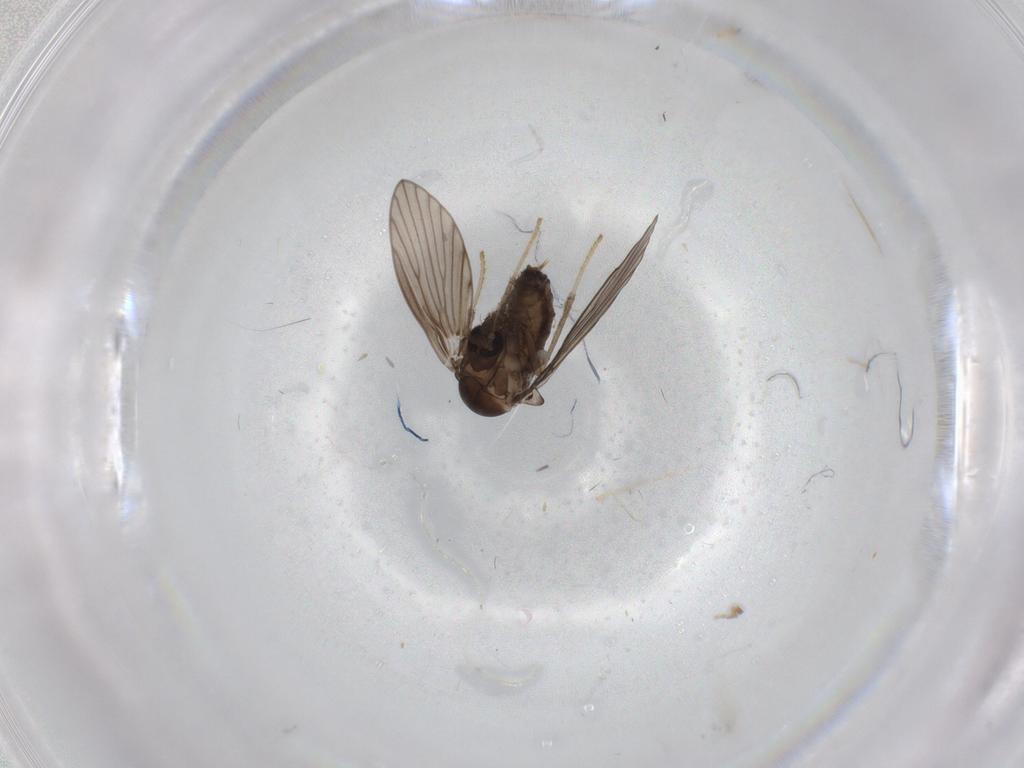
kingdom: Animalia
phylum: Arthropoda
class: Insecta
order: Diptera
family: Psychodidae
